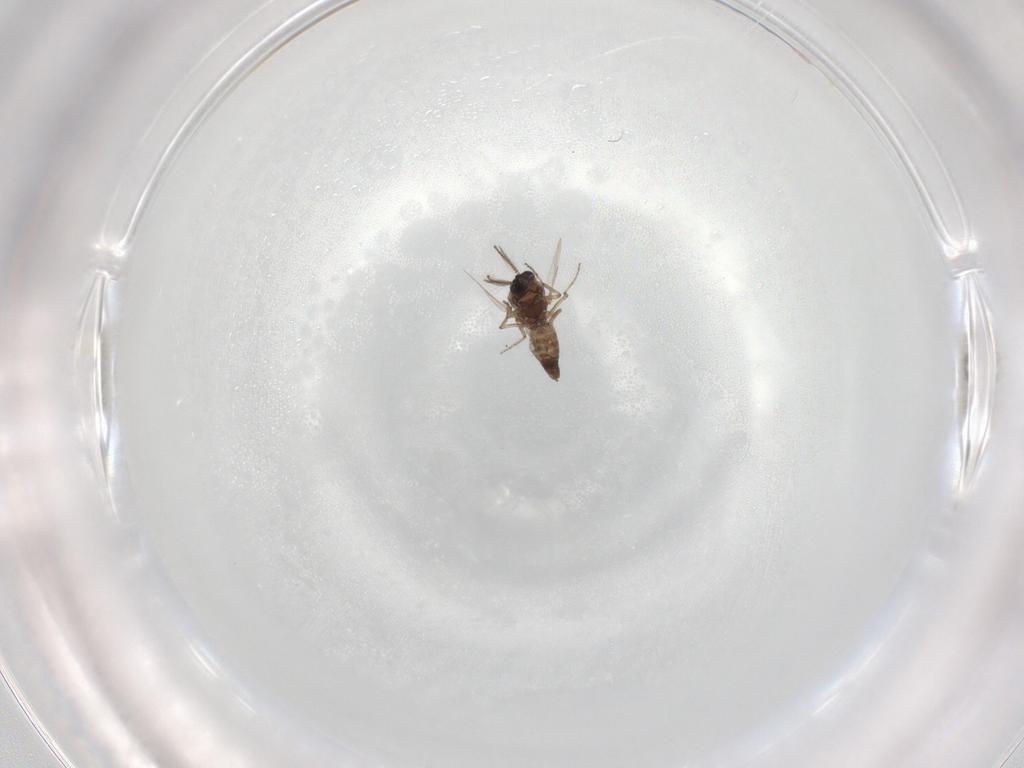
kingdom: Animalia
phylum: Arthropoda
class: Insecta
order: Diptera
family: Ceratopogonidae
